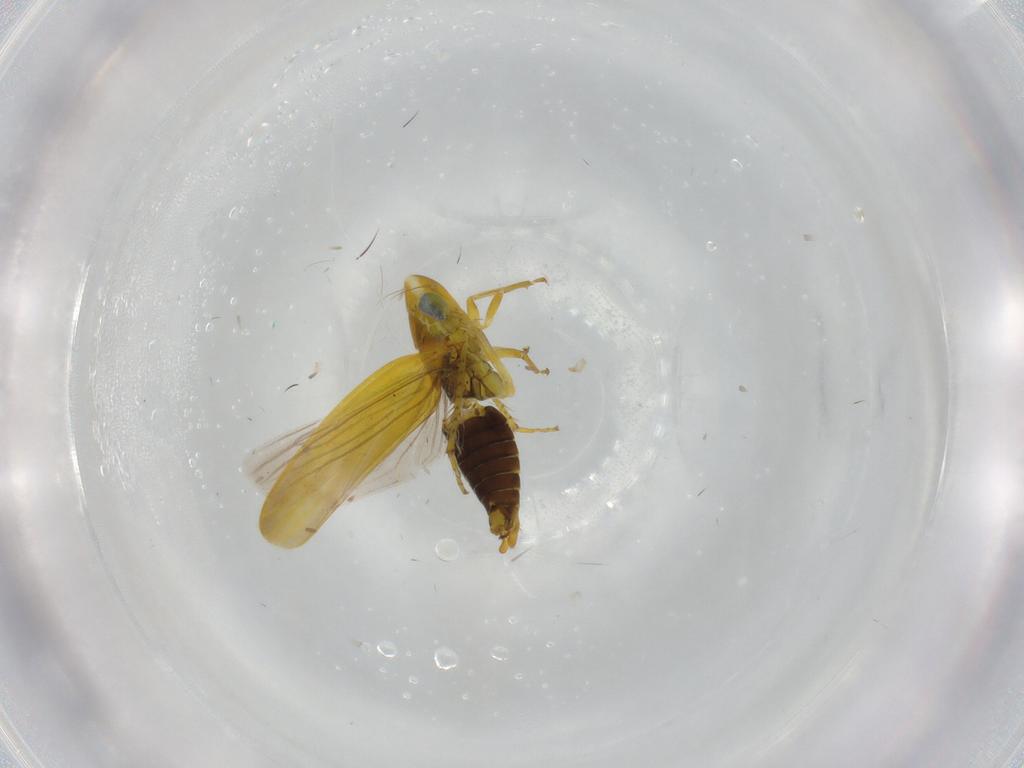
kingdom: Animalia
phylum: Arthropoda
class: Insecta
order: Hemiptera
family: Cicadellidae
